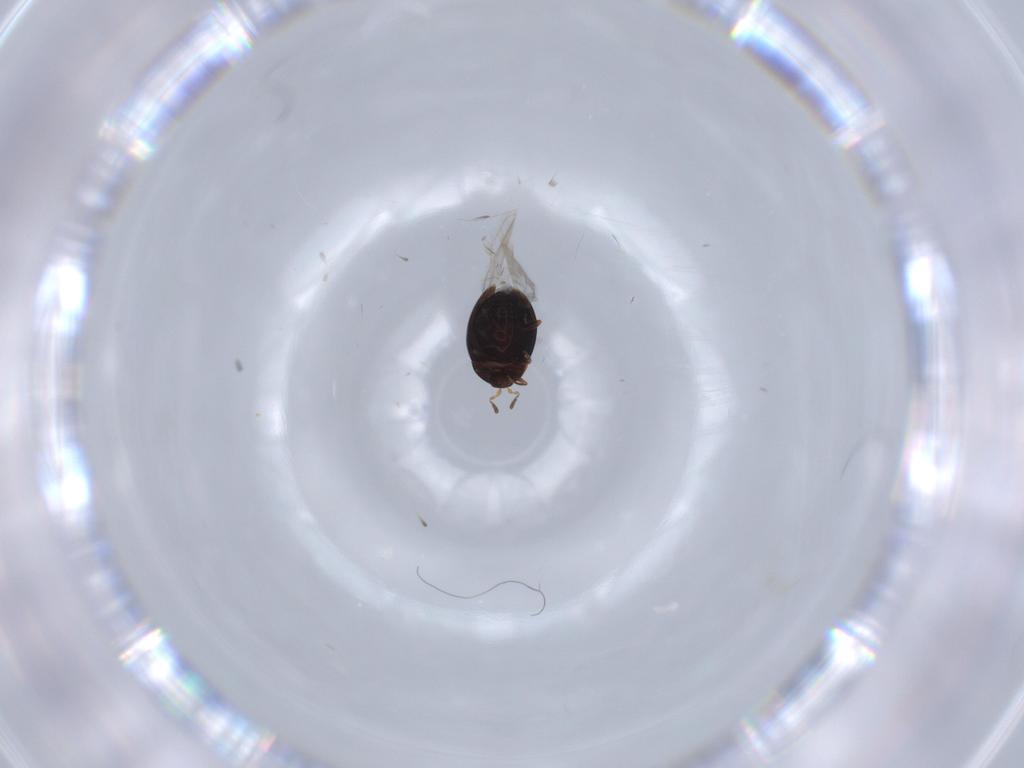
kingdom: Animalia
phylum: Arthropoda
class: Insecta
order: Coleoptera
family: Corylophidae
